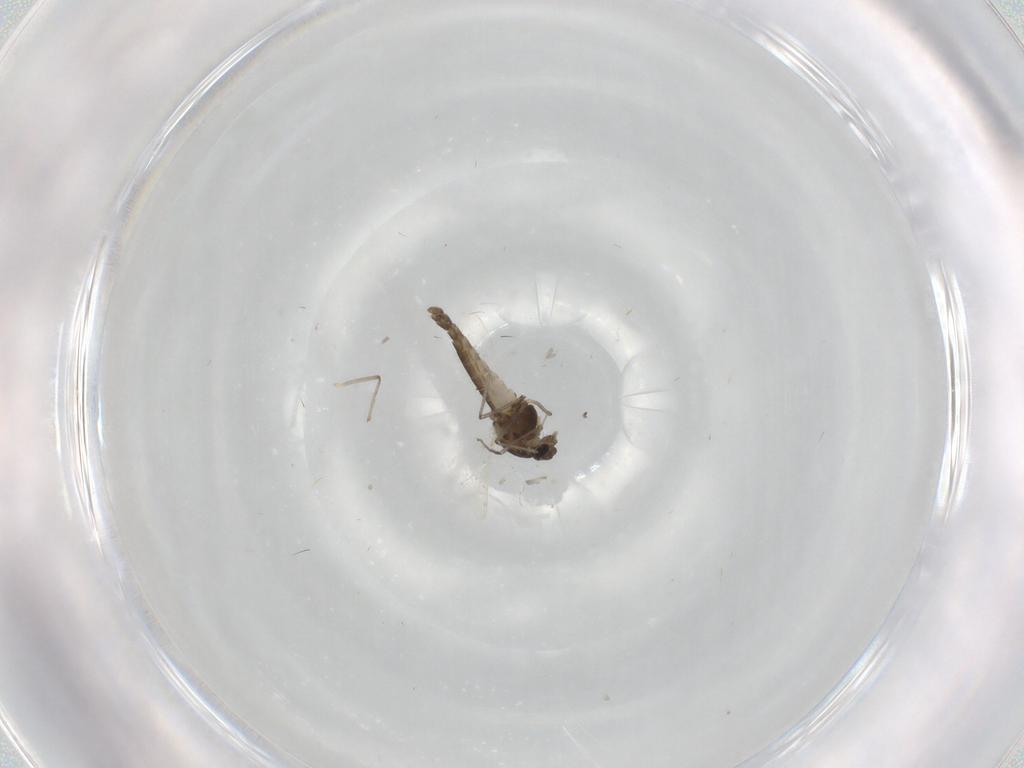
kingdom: Animalia
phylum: Arthropoda
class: Insecta
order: Diptera
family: Chironomidae
